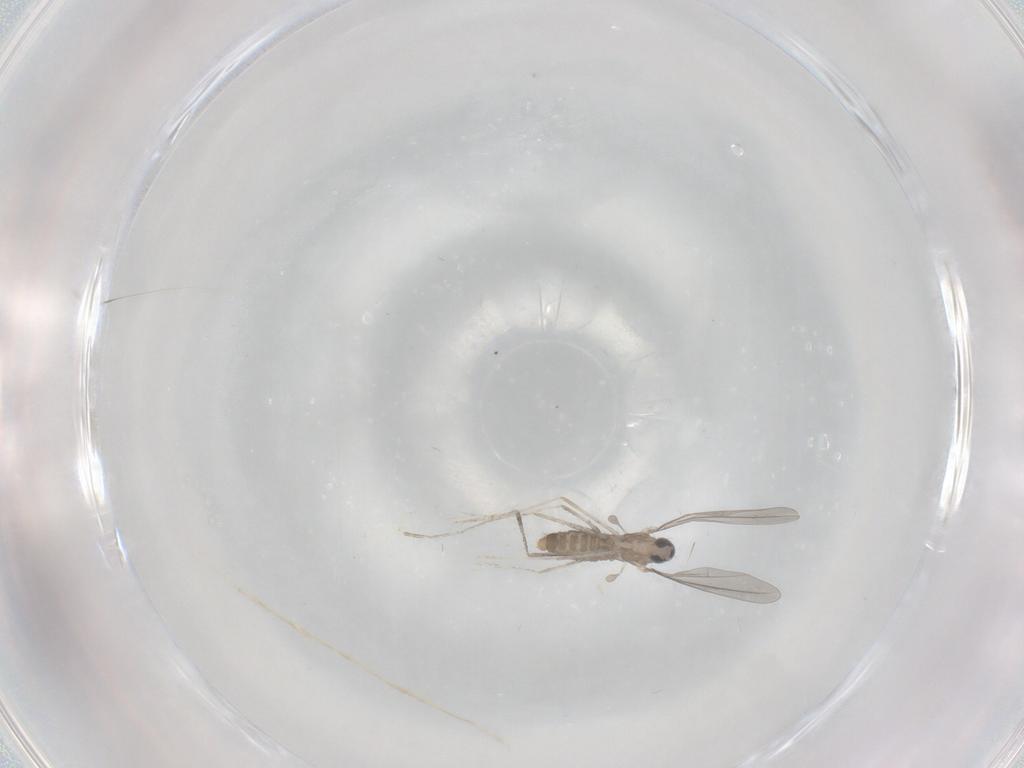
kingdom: Animalia
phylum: Arthropoda
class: Insecta
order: Diptera
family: Cecidomyiidae
